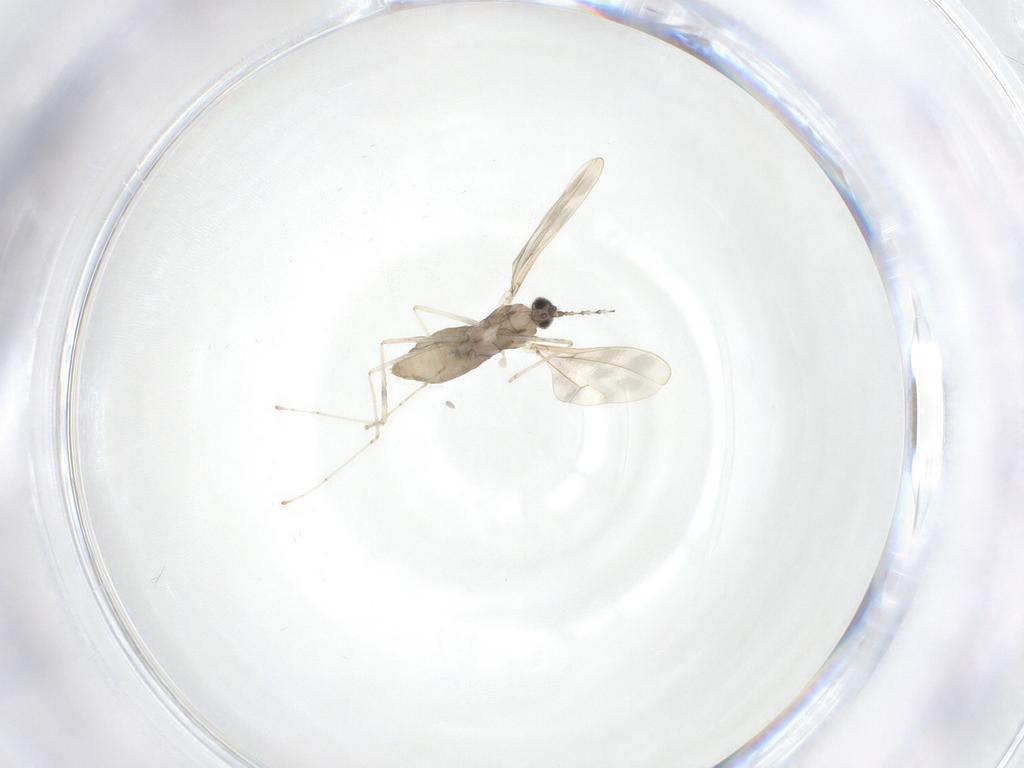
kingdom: Animalia
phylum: Arthropoda
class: Insecta
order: Diptera
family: Cecidomyiidae
